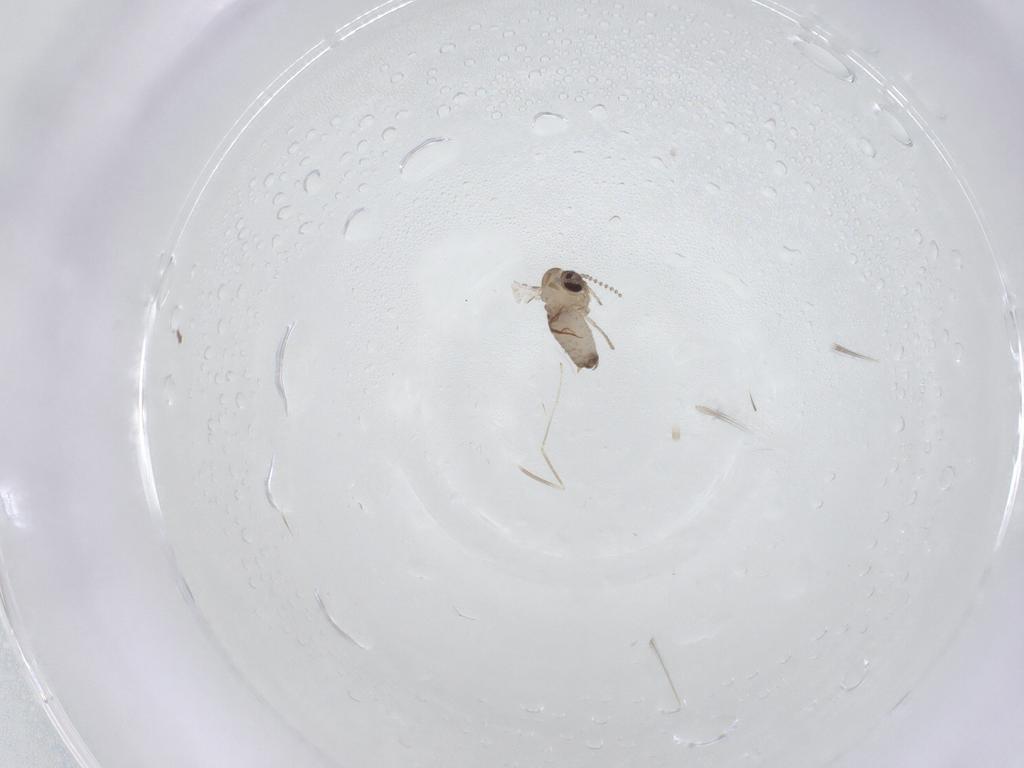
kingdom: Animalia
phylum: Arthropoda
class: Insecta
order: Diptera
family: Psychodidae
